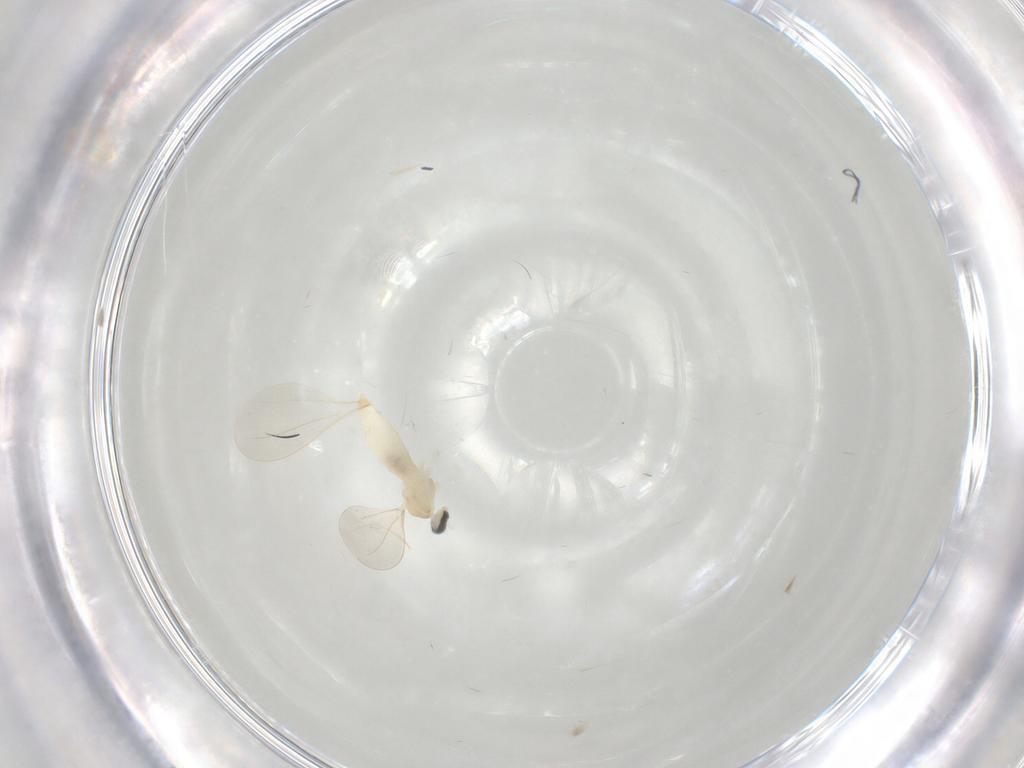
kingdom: Animalia
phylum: Arthropoda
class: Insecta
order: Diptera
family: Cecidomyiidae
